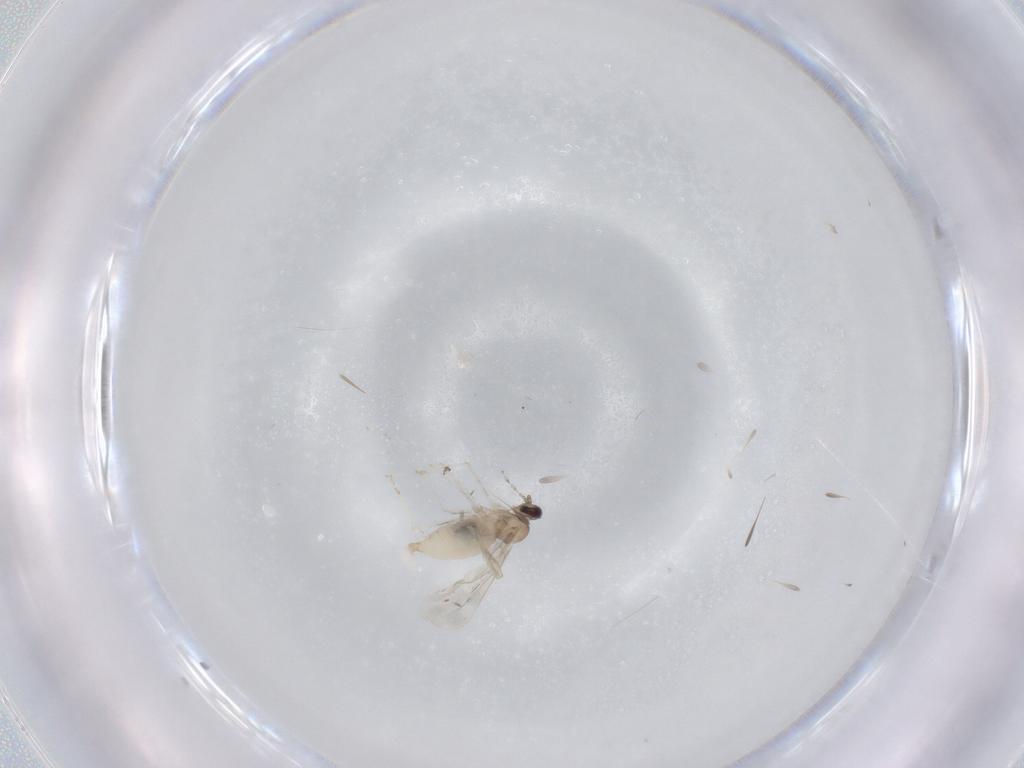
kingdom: Animalia
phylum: Arthropoda
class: Insecta
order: Diptera
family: Cecidomyiidae
